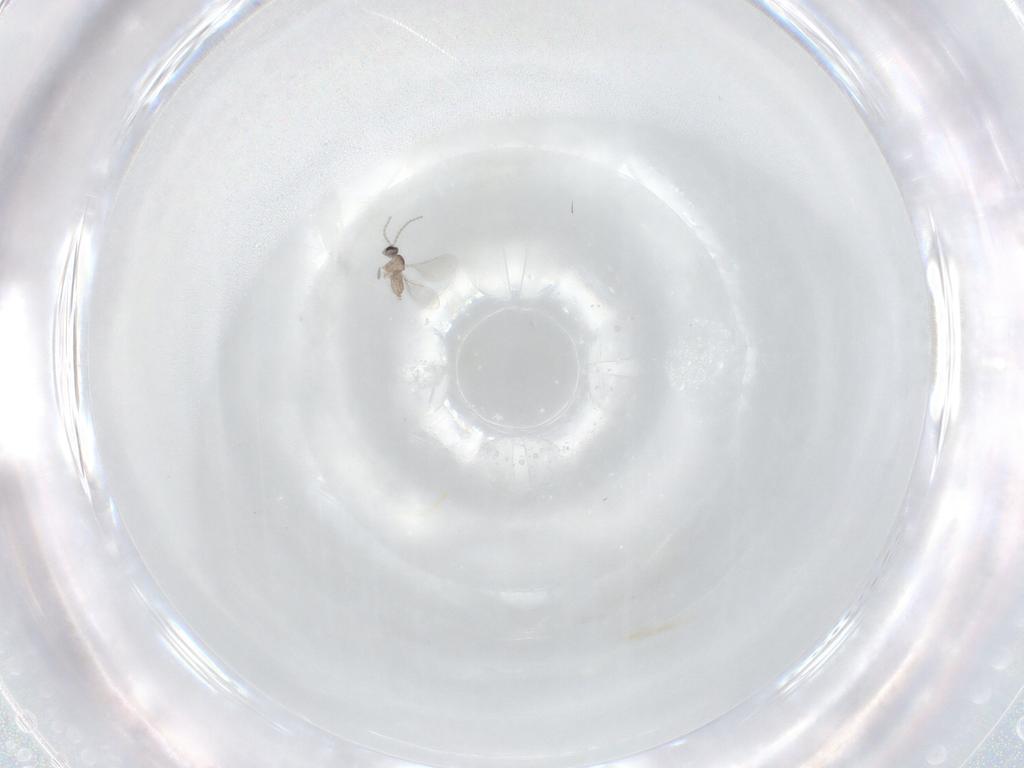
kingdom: Animalia
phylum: Arthropoda
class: Insecta
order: Diptera
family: Cecidomyiidae
